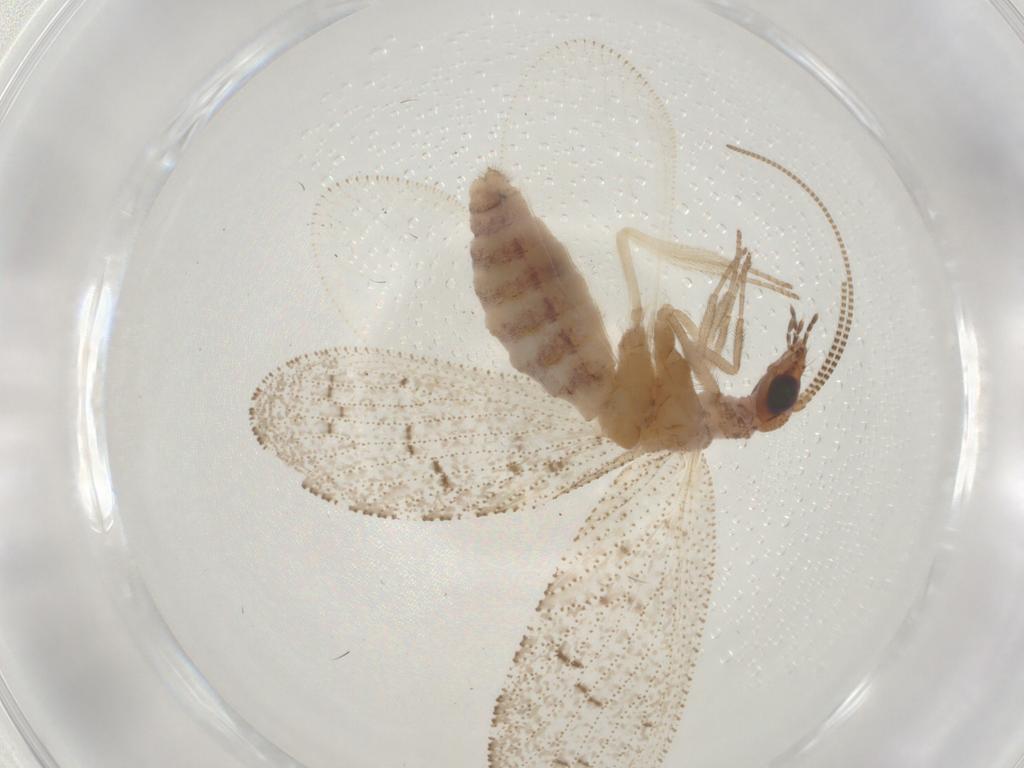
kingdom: Animalia
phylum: Arthropoda
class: Insecta
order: Neuroptera
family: Hemerobiidae
